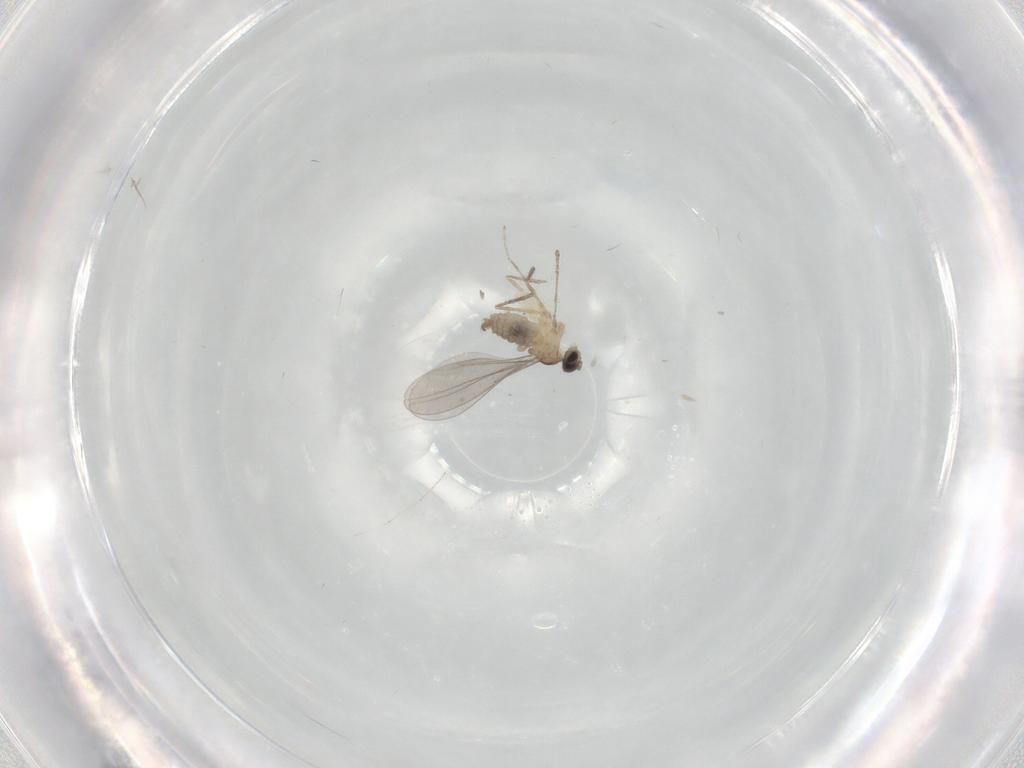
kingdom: Animalia
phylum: Arthropoda
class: Insecta
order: Diptera
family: Cecidomyiidae
